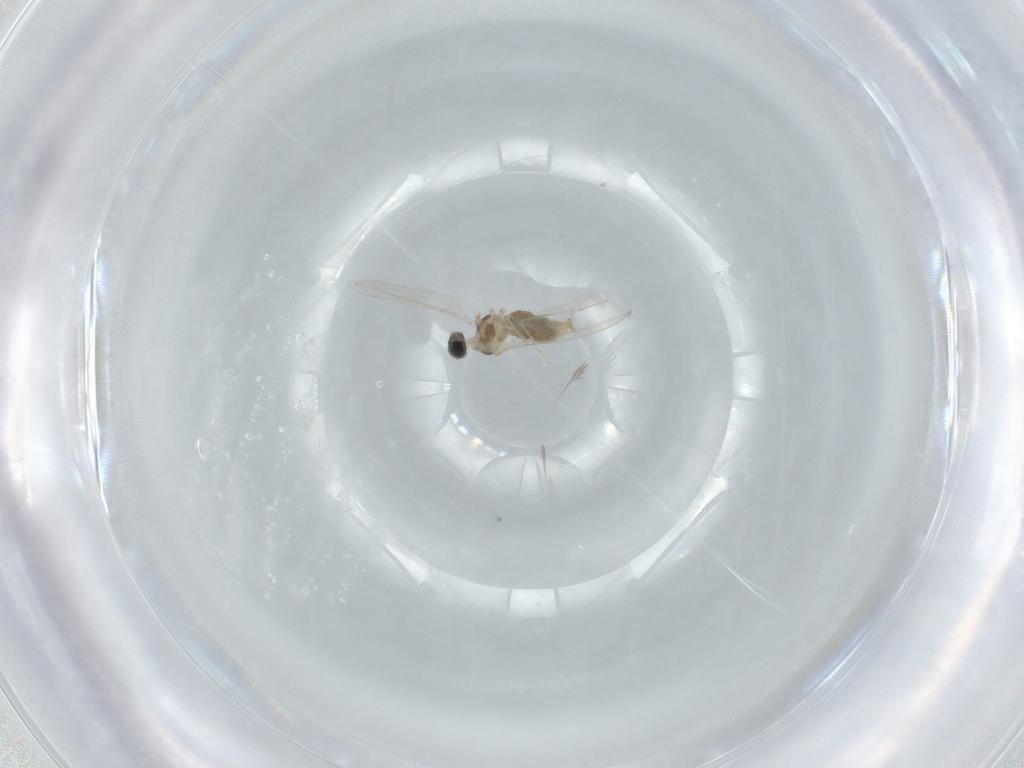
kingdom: Animalia
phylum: Arthropoda
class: Insecta
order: Diptera
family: Cecidomyiidae
